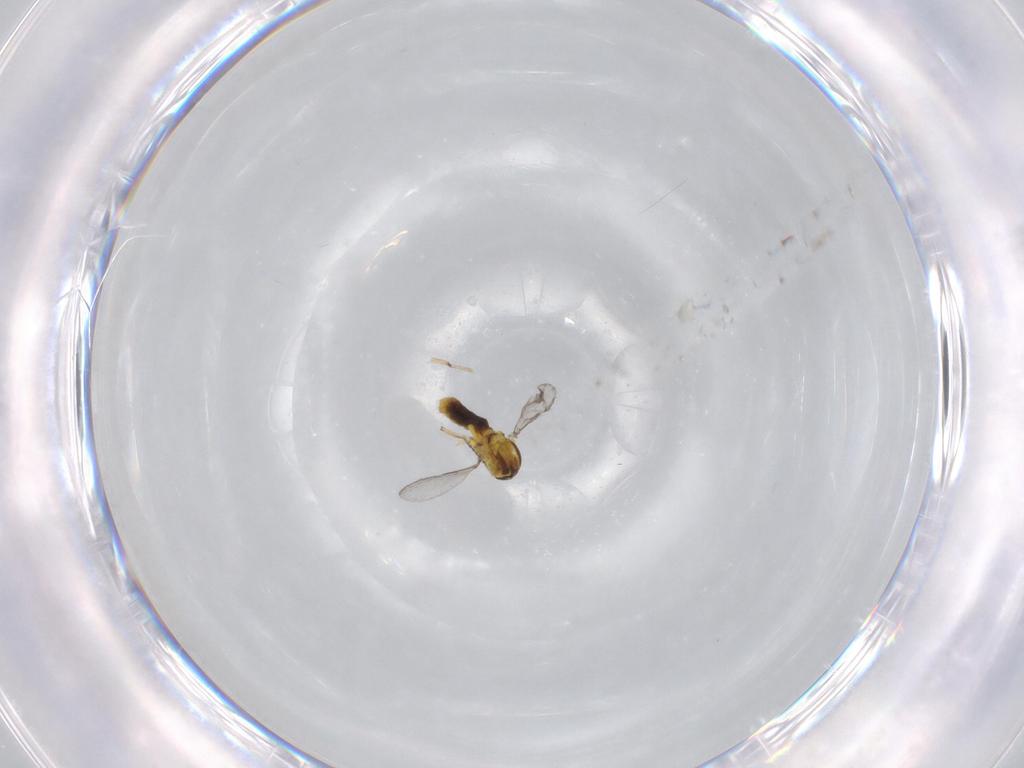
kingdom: Animalia
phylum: Arthropoda
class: Insecta
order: Diptera
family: Ceratopogonidae
